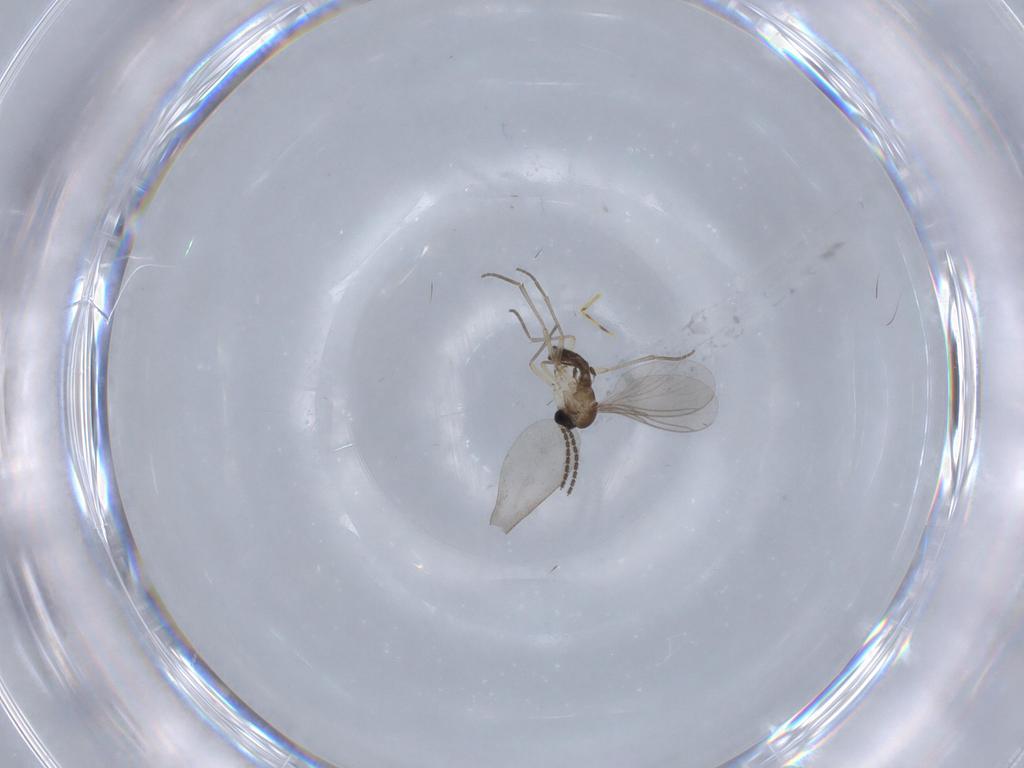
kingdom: Animalia
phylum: Arthropoda
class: Insecta
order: Diptera
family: Sciaridae
